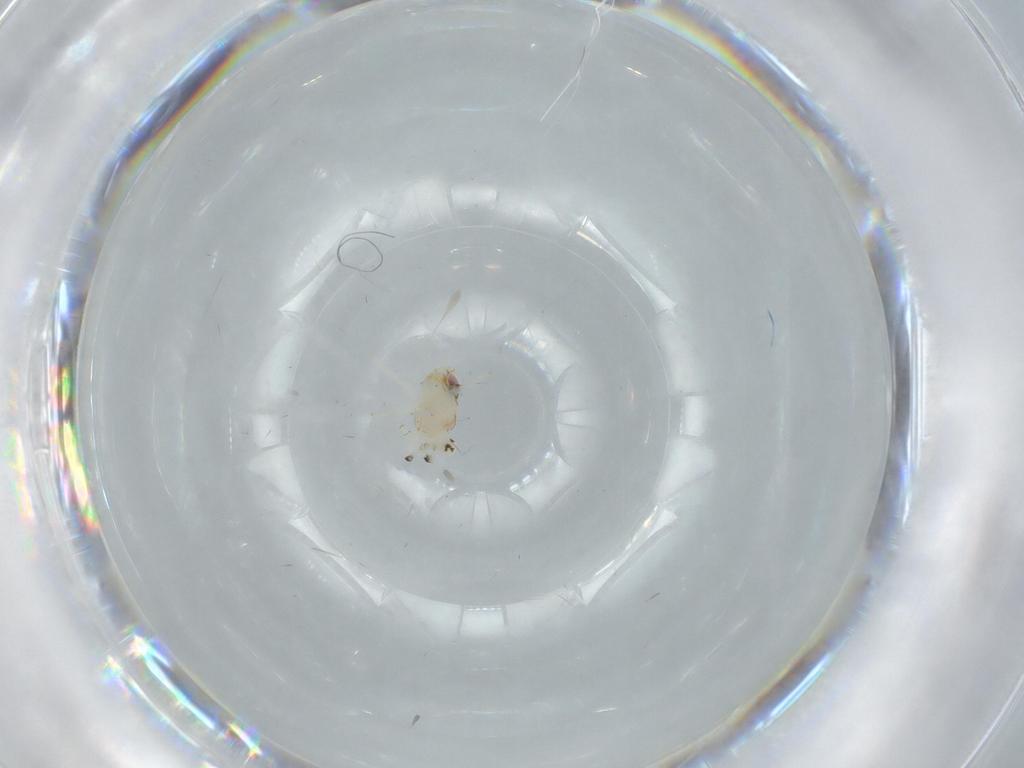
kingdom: Animalia
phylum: Arthropoda
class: Insecta
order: Hemiptera
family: Nogodinidae
